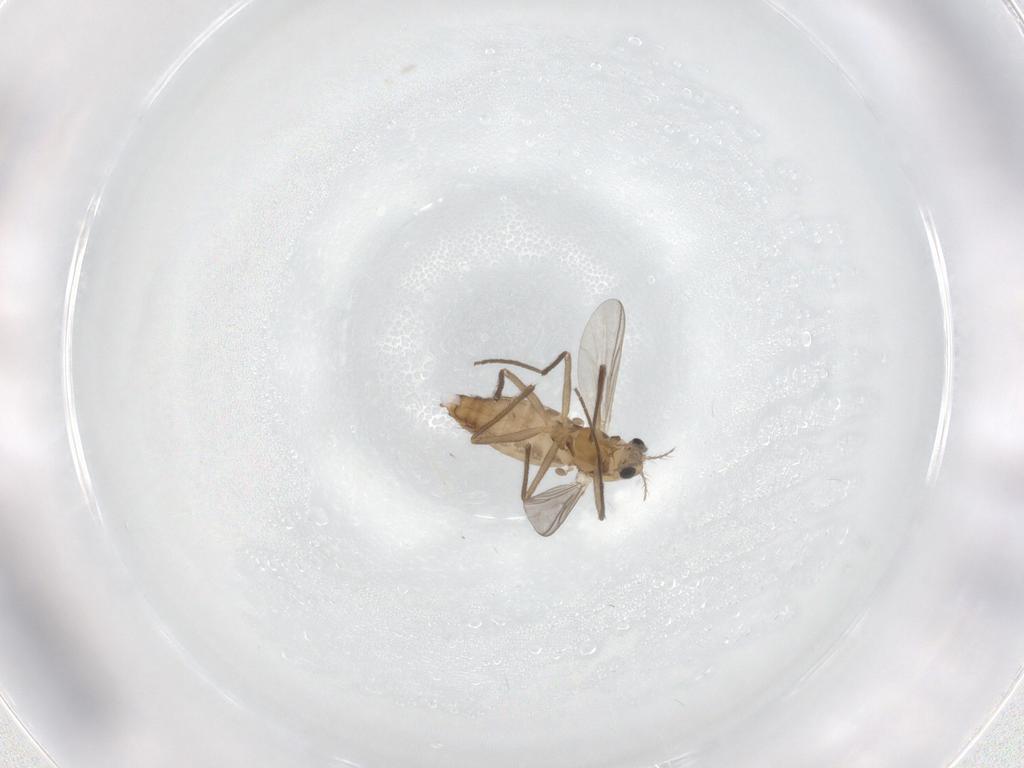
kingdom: Animalia
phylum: Arthropoda
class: Insecta
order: Diptera
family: Chironomidae
